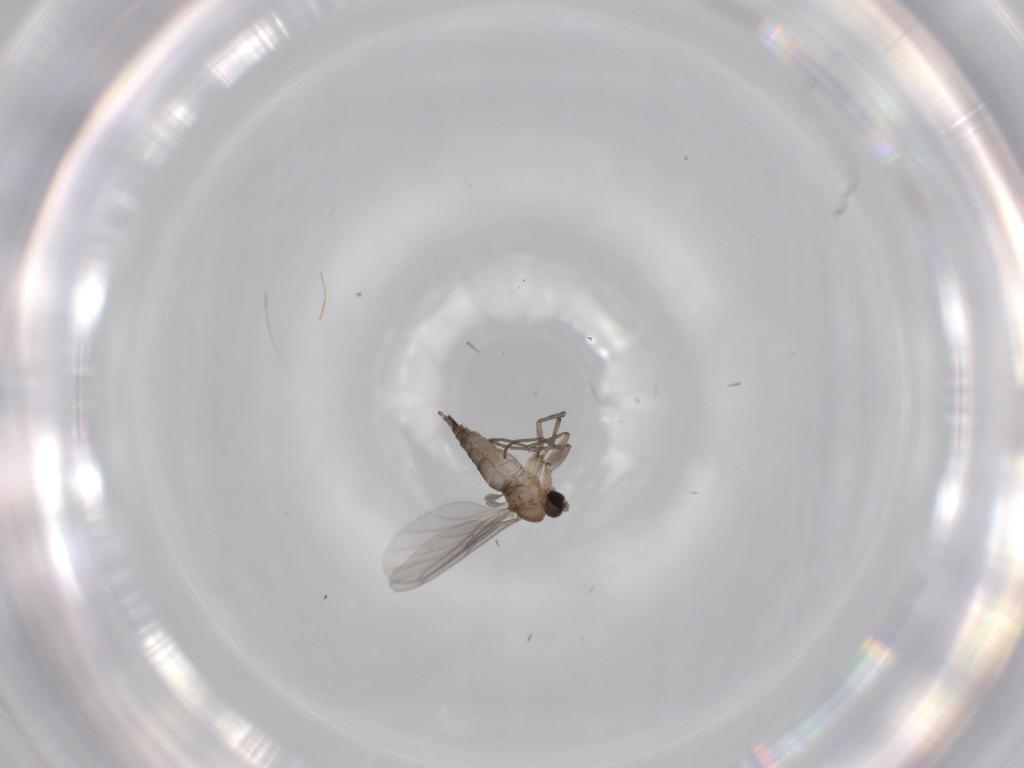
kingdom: Animalia
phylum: Arthropoda
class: Insecta
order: Diptera
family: Sciaridae
